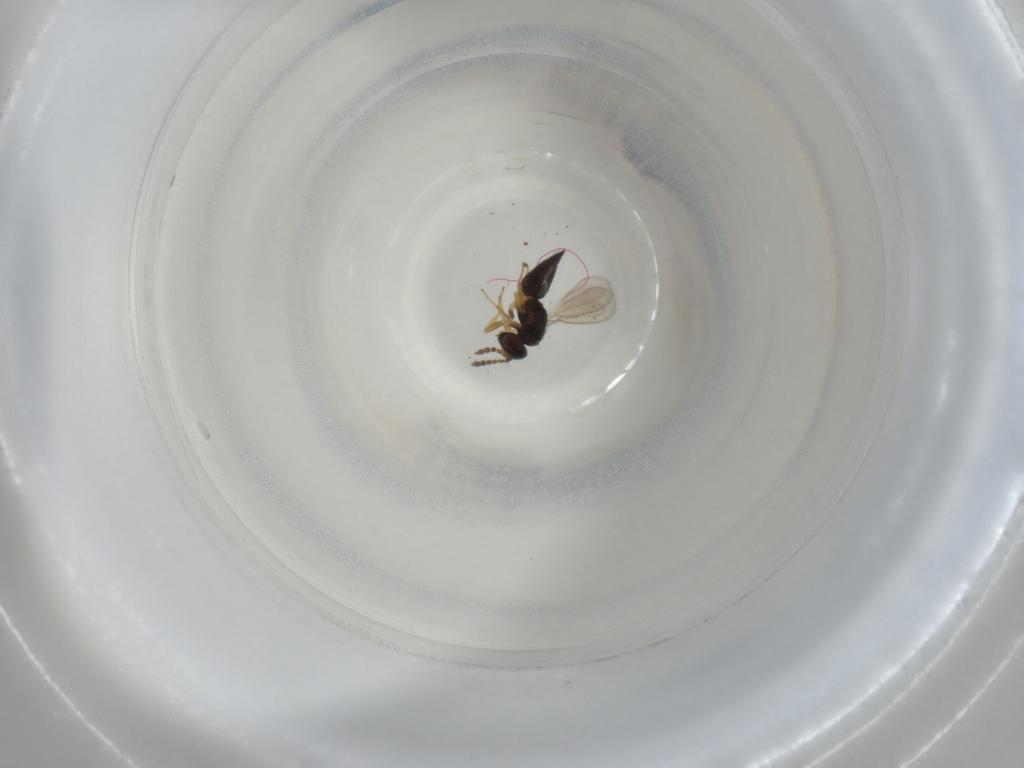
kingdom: Animalia
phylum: Arthropoda
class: Insecta
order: Hymenoptera
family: Eulophidae
